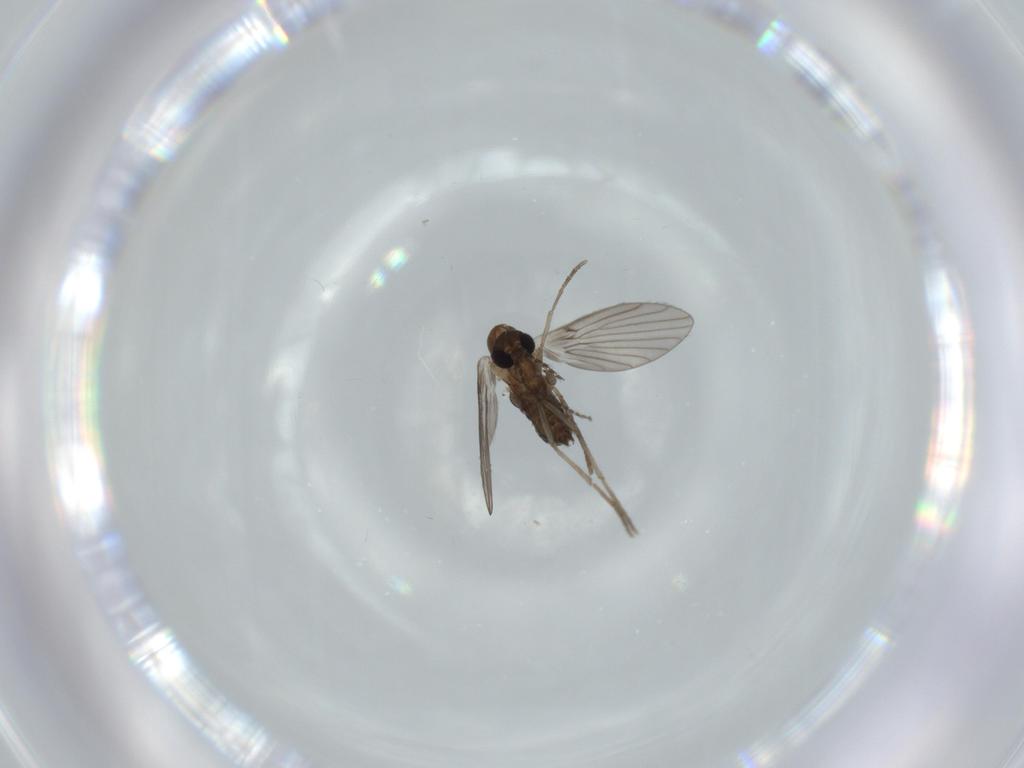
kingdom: Animalia
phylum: Arthropoda
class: Insecta
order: Diptera
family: Psychodidae
